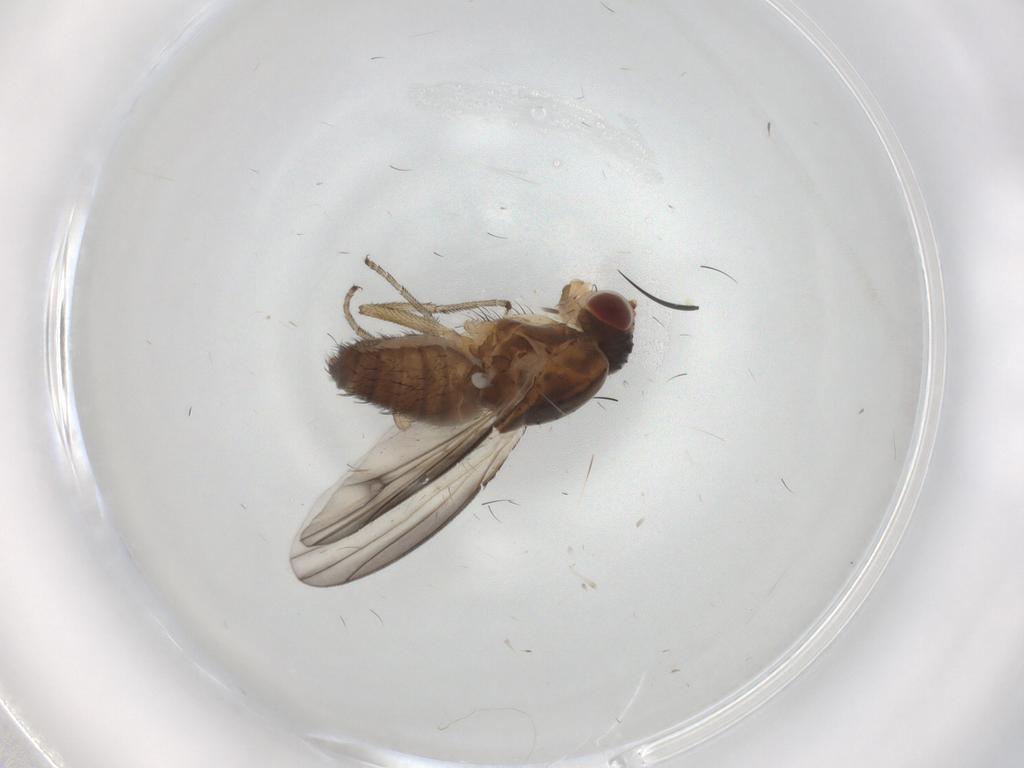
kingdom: Animalia
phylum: Arthropoda
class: Insecta
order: Diptera
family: Heleomyzidae
